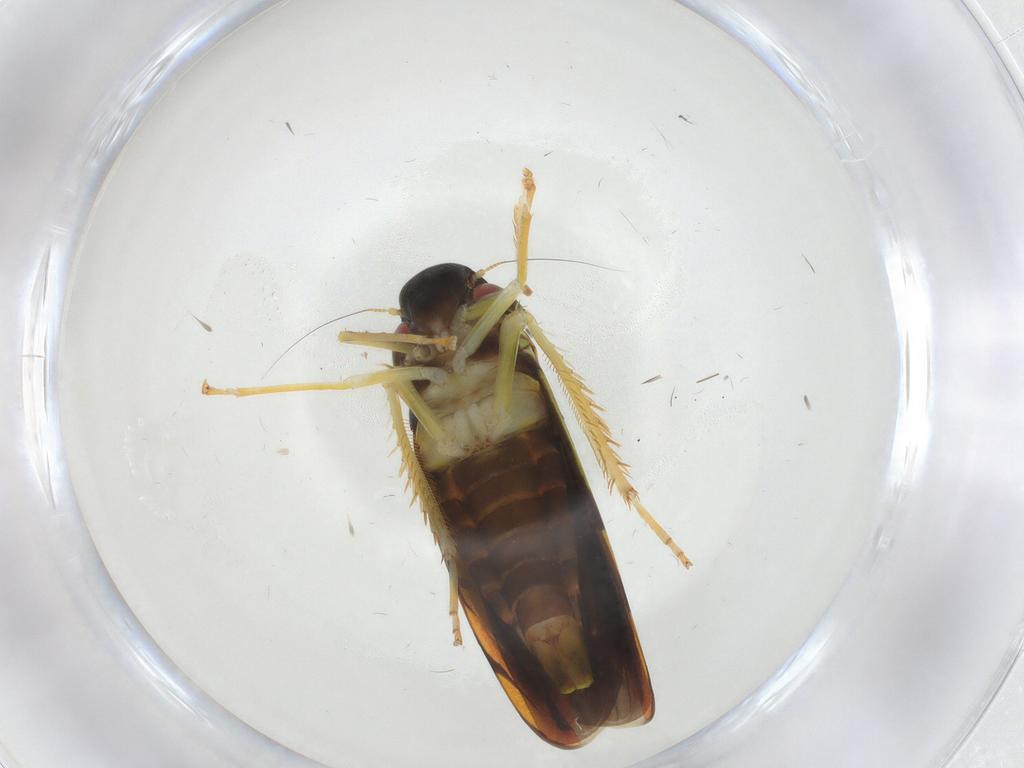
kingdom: Animalia
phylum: Arthropoda
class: Insecta
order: Hemiptera
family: Cicadellidae
